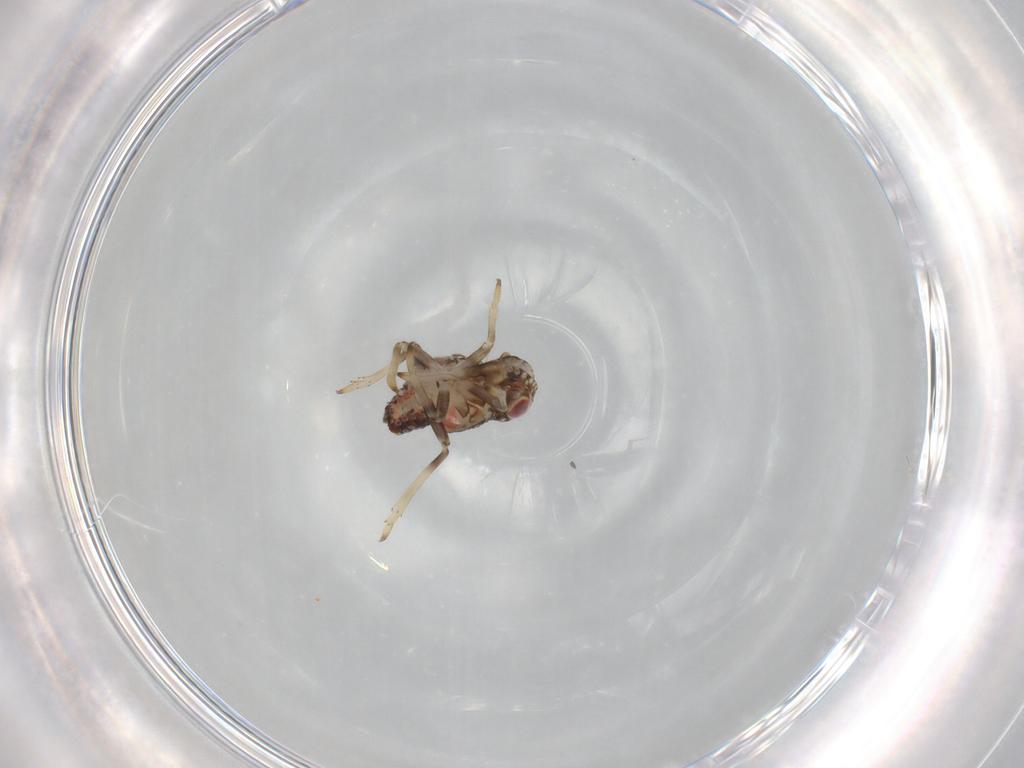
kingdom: Animalia
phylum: Arthropoda
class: Insecta
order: Hemiptera
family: Tropiduchidae
